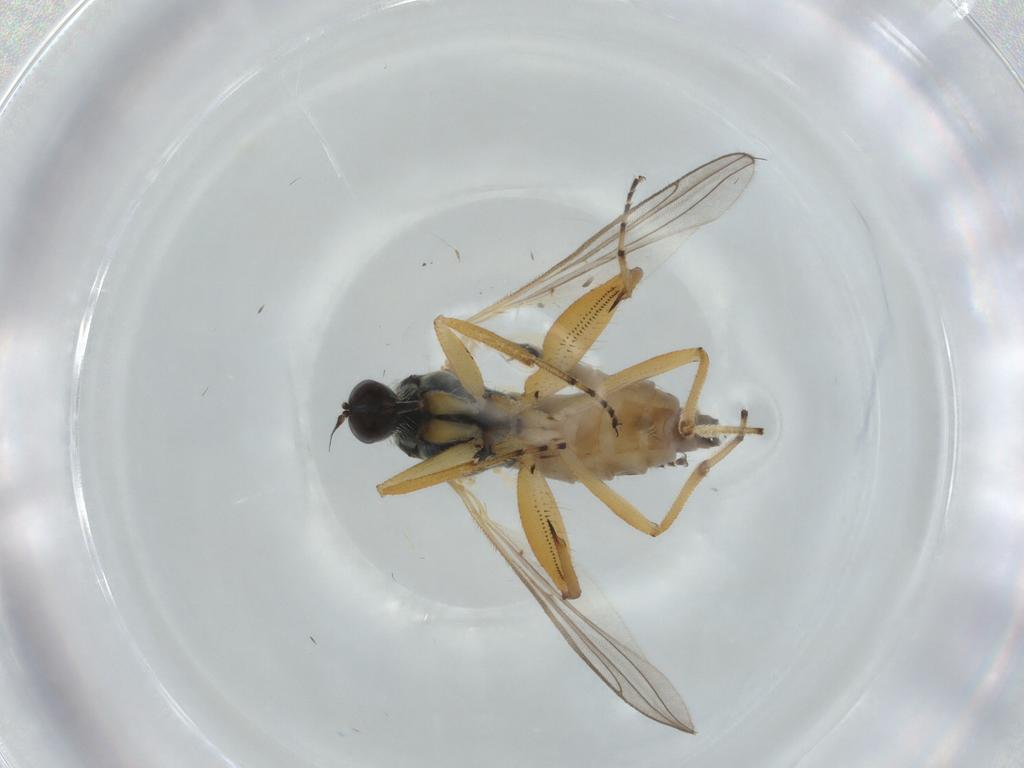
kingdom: Animalia
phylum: Arthropoda
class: Insecta
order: Diptera
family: Hybotidae
